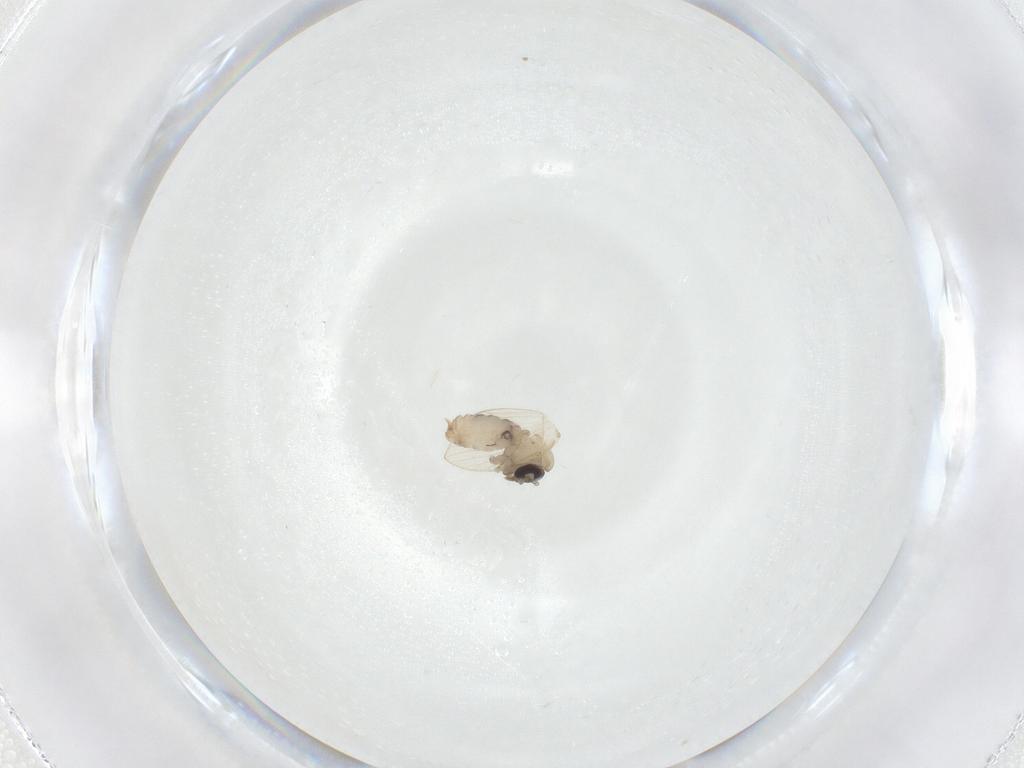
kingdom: Animalia
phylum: Arthropoda
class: Insecta
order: Diptera
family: Psychodidae
